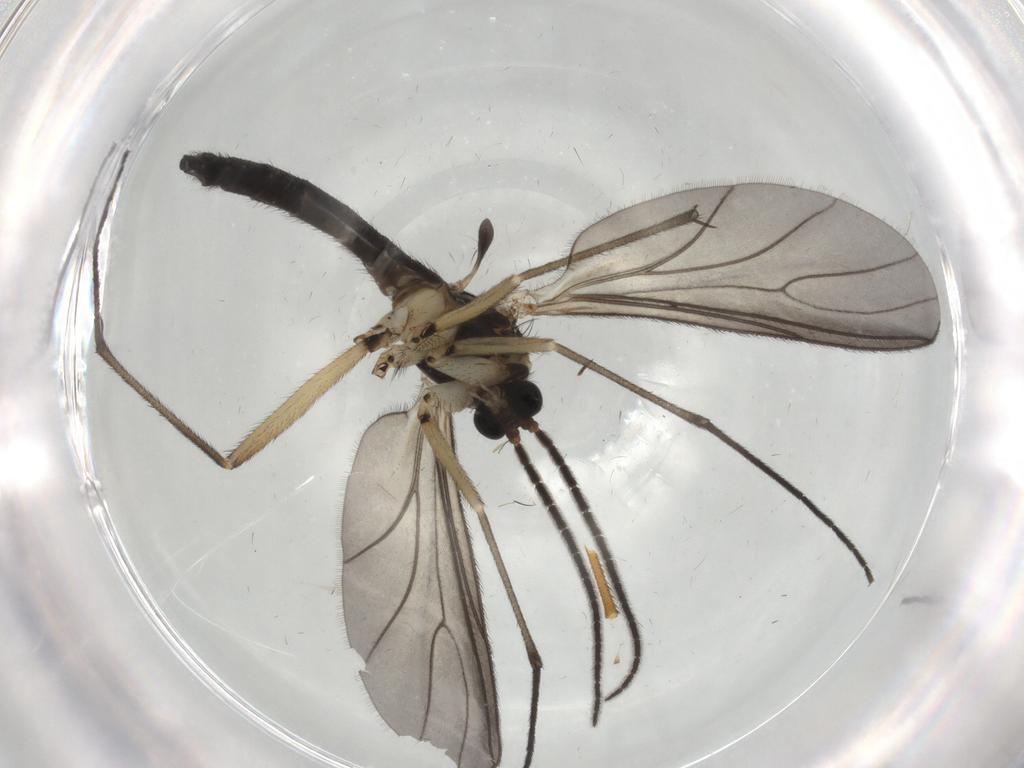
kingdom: Animalia
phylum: Arthropoda
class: Insecta
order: Diptera
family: Sciaridae
